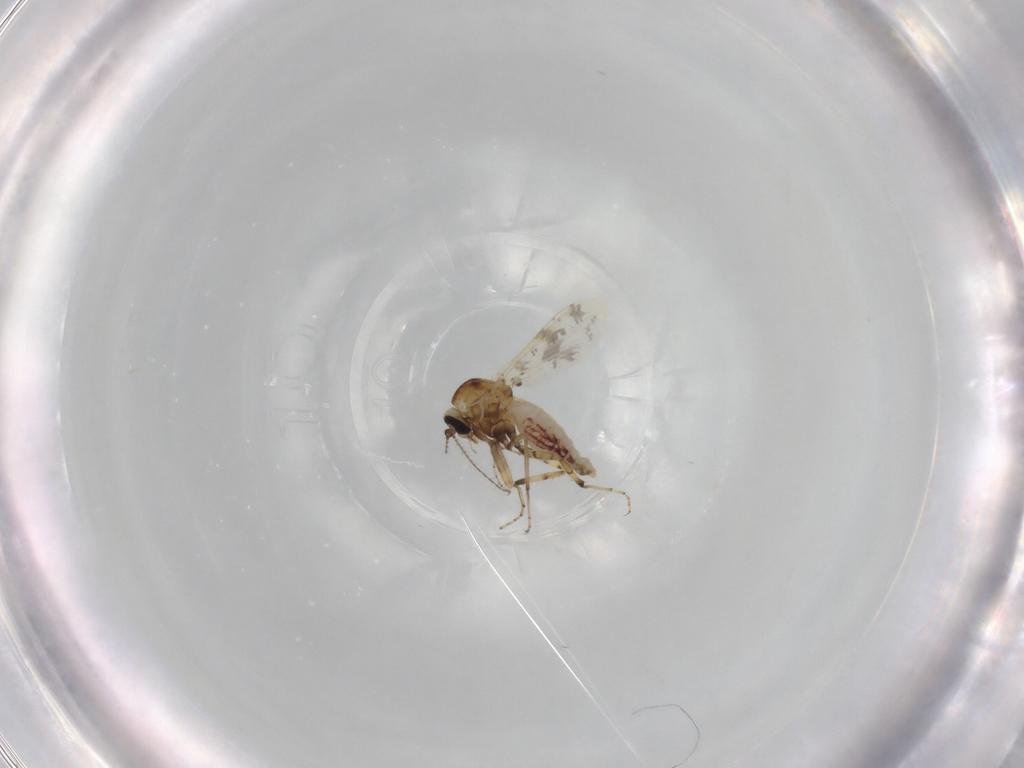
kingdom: Animalia
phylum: Arthropoda
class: Insecta
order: Diptera
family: Ceratopogonidae
